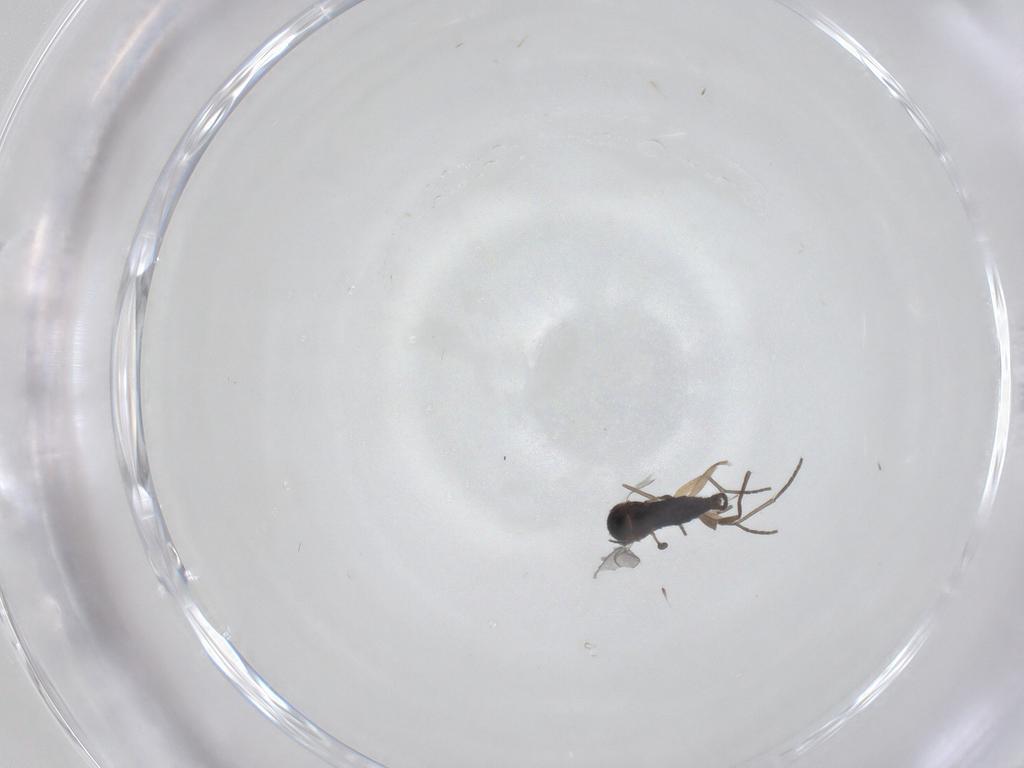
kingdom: Animalia
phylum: Arthropoda
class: Insecta
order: Diptera
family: Sciaridae
